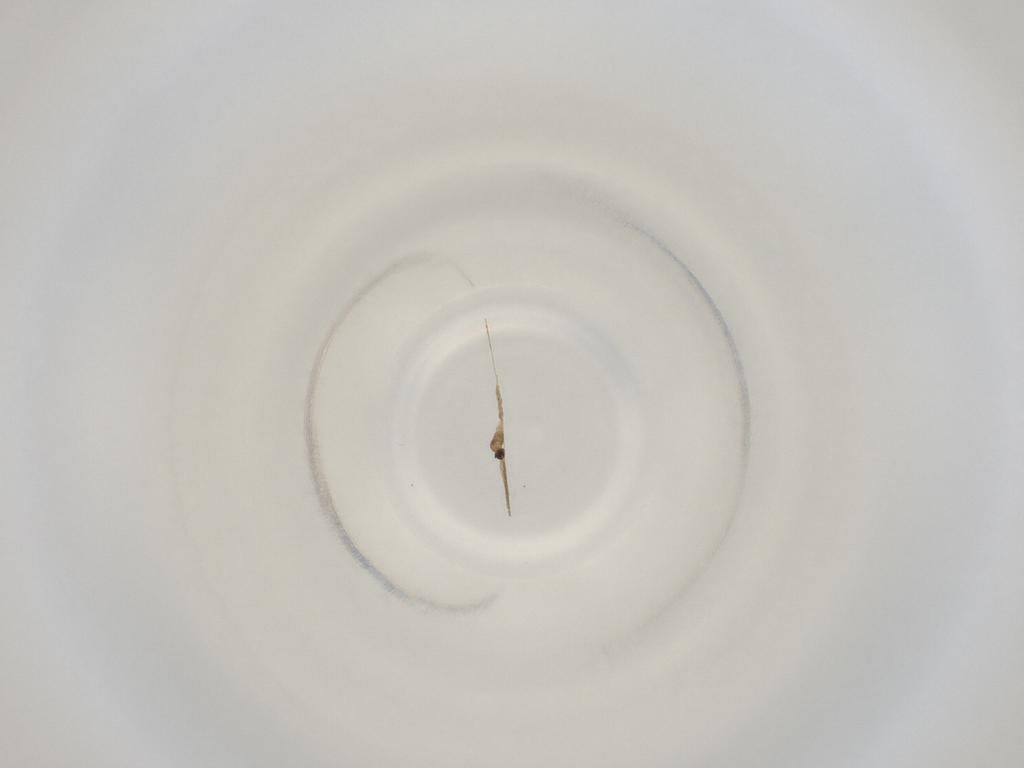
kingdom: Animalia
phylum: Arthropoda
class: Insecta
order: Diptera
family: Cecidomyiidae
